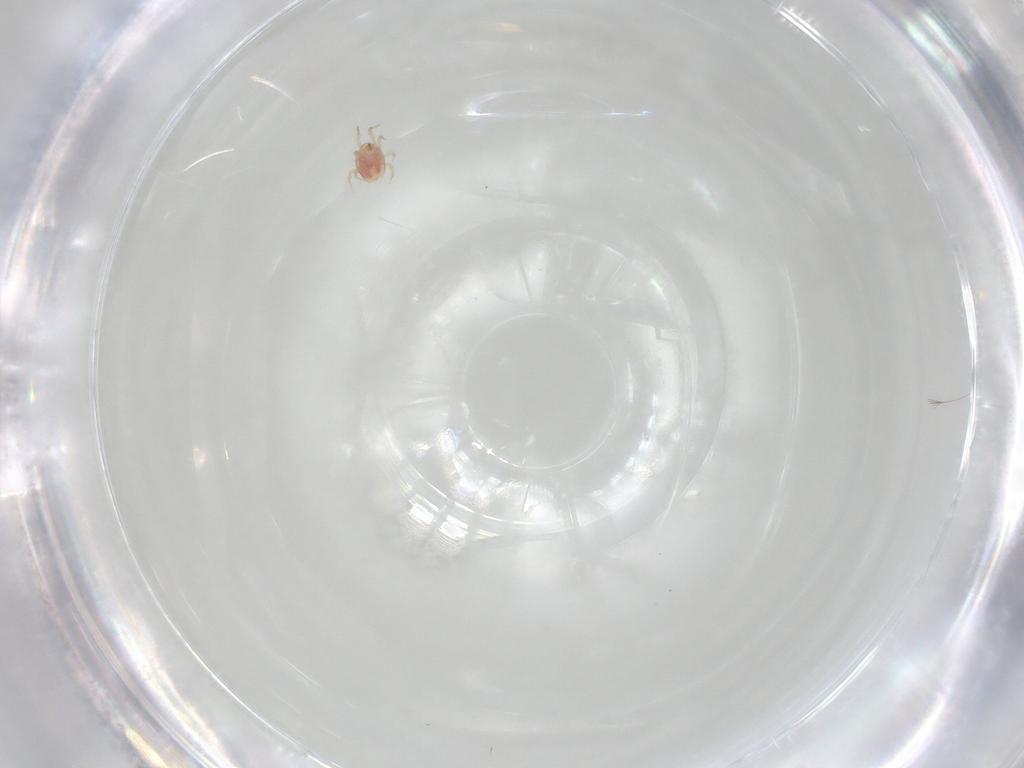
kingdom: Animalia
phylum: Arthropoda
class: Arachnida
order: Mesostigmata
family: Phytoseiidae
